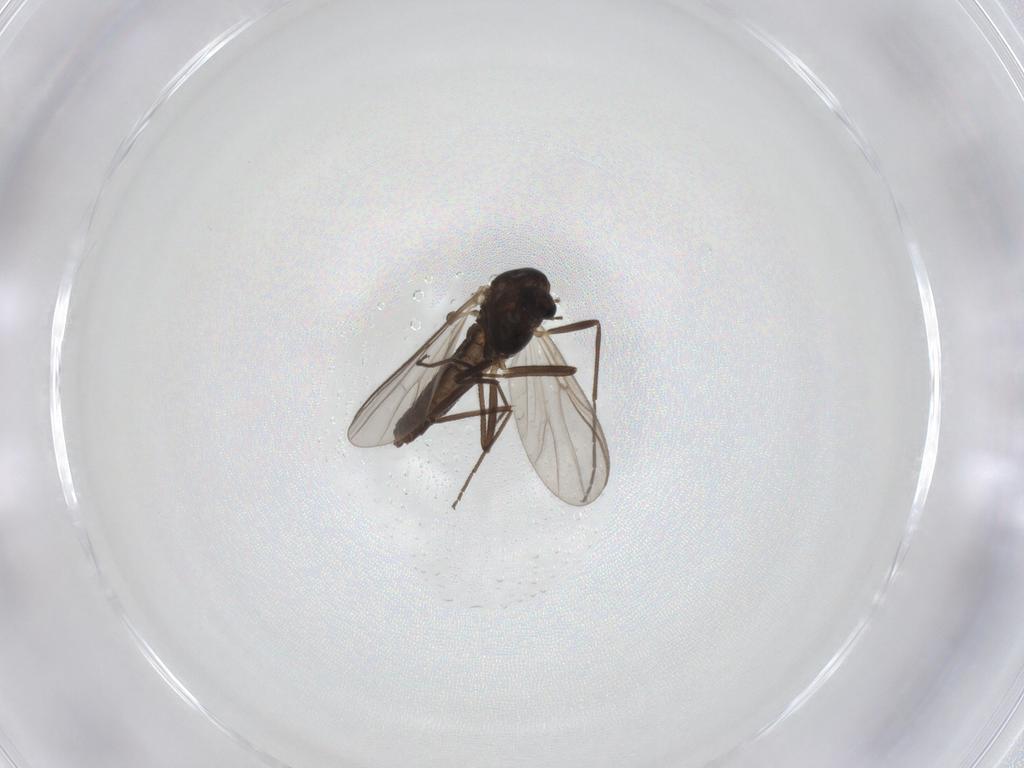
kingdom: Animalia
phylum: Arthropoda
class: Insecta
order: Diptera
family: Chironomidae
